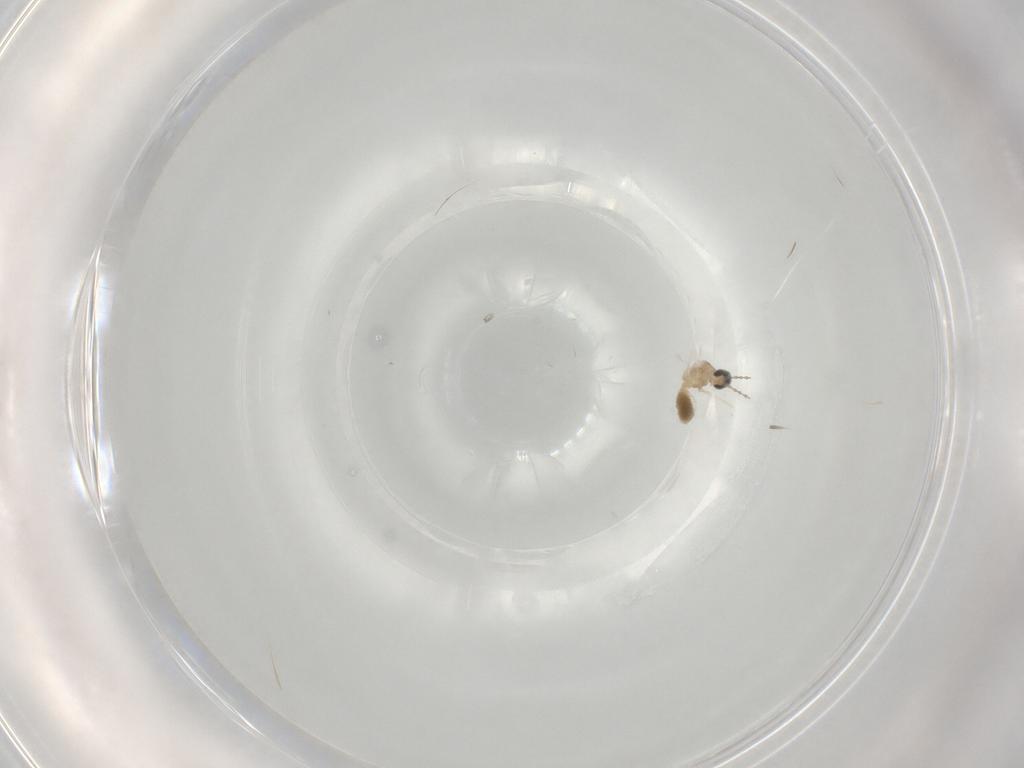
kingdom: Animalia
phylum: Arthropoda
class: Insecta
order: Diptera
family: Cecidomyiidae
